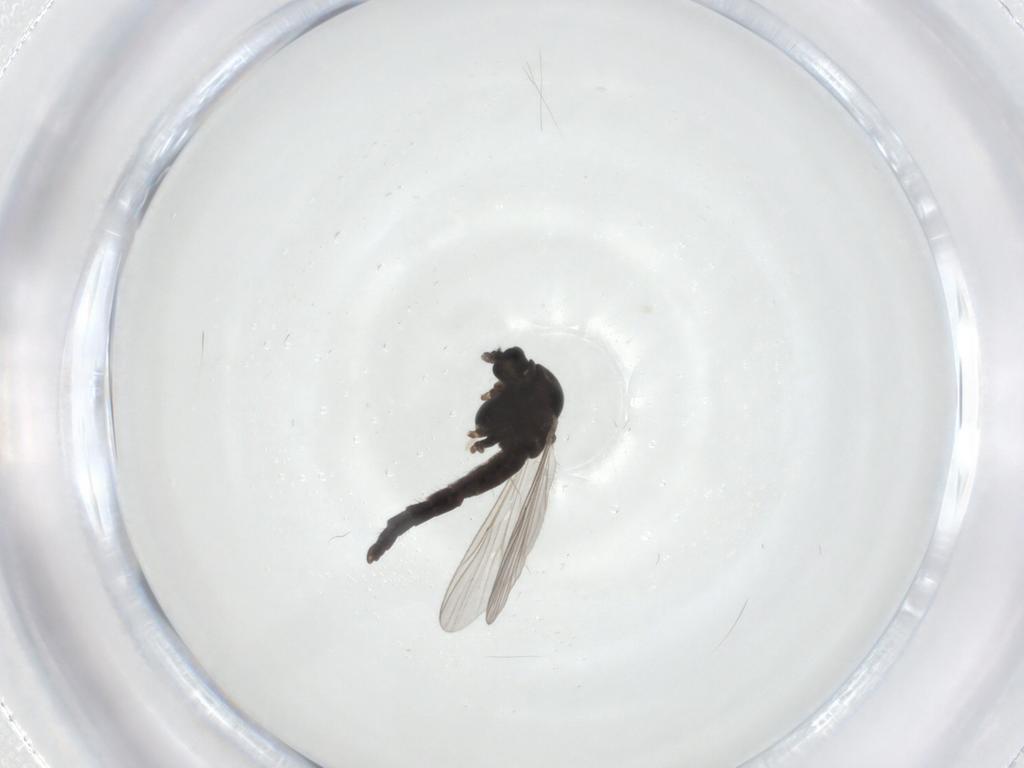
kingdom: Animalia
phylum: Arthropoda
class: Insecta
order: Diptera
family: Chironomidae
